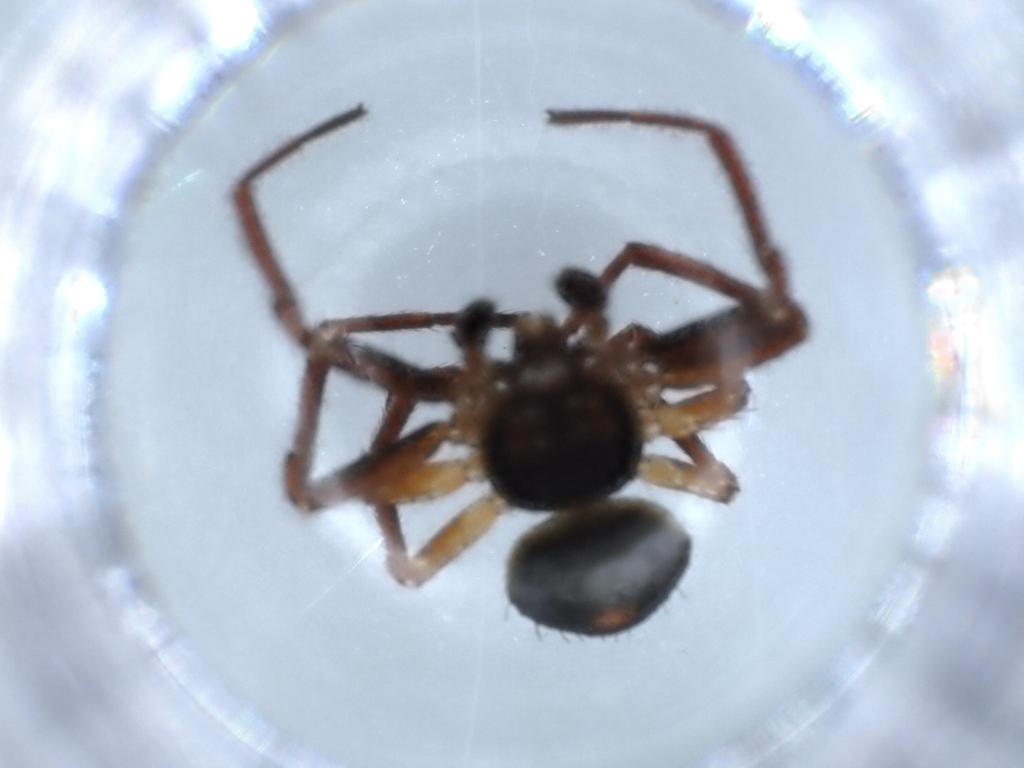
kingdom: Animalia
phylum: Arthropoda
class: Arachnida
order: Araneae
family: Thomisidae
